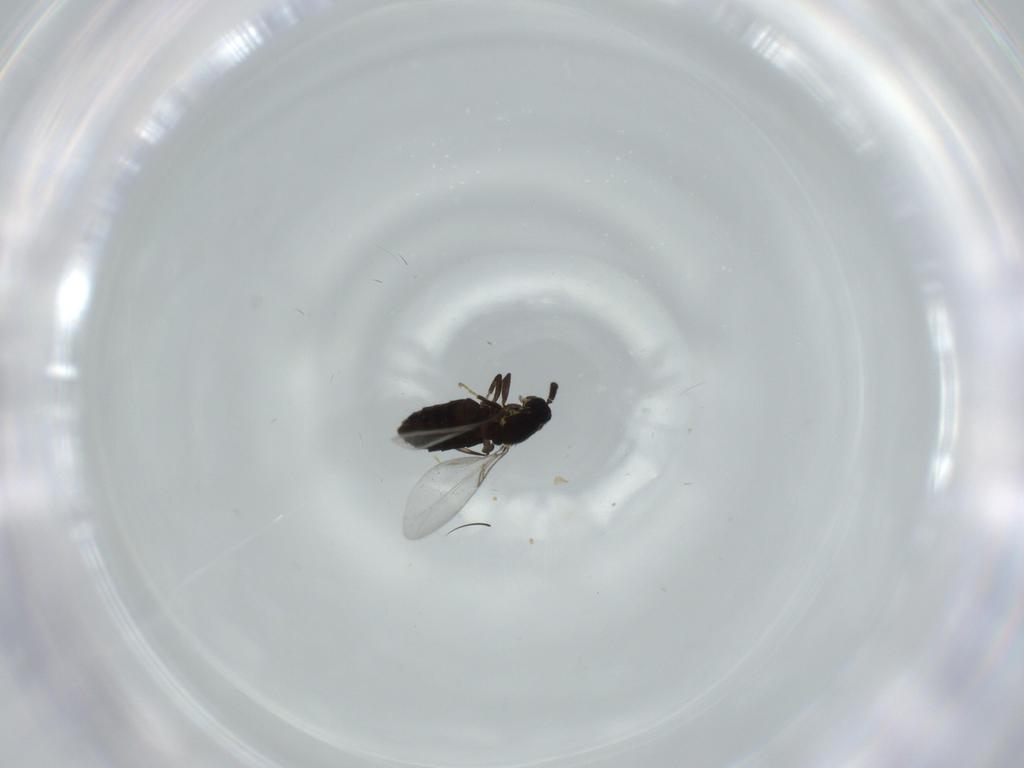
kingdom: Animalia
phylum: Arthropoda
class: Insecta
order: Diptera
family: Scatopsidae
